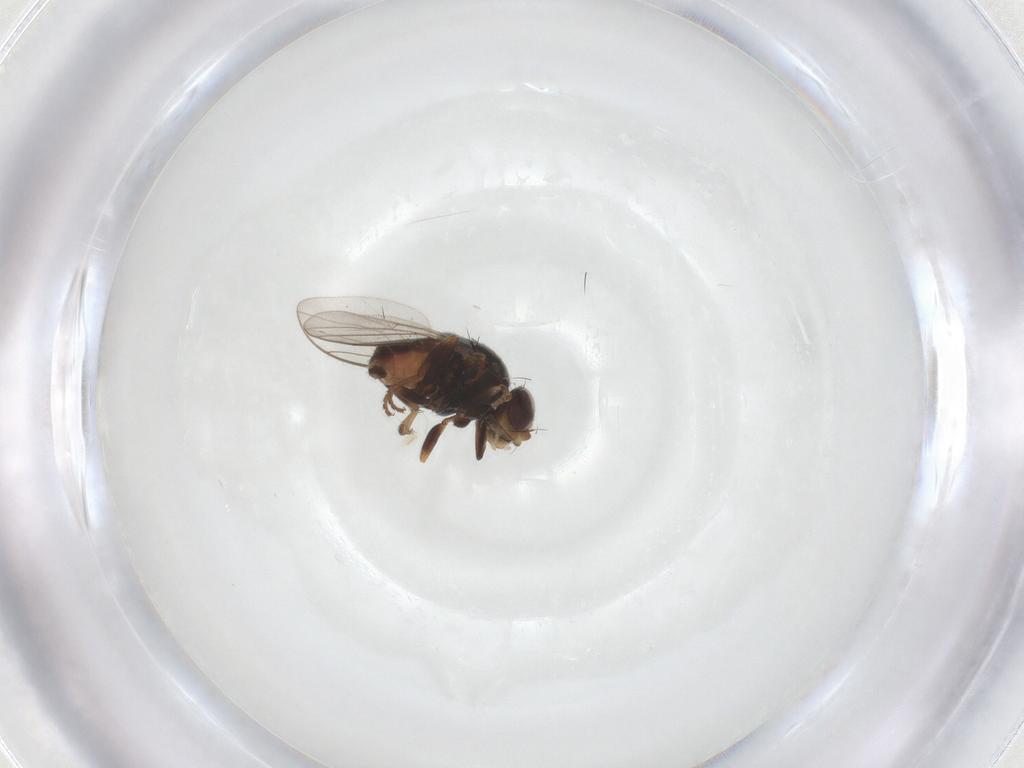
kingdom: Animalia
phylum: Arthropoda
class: Insecta
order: Diptera
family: Chloropidae
